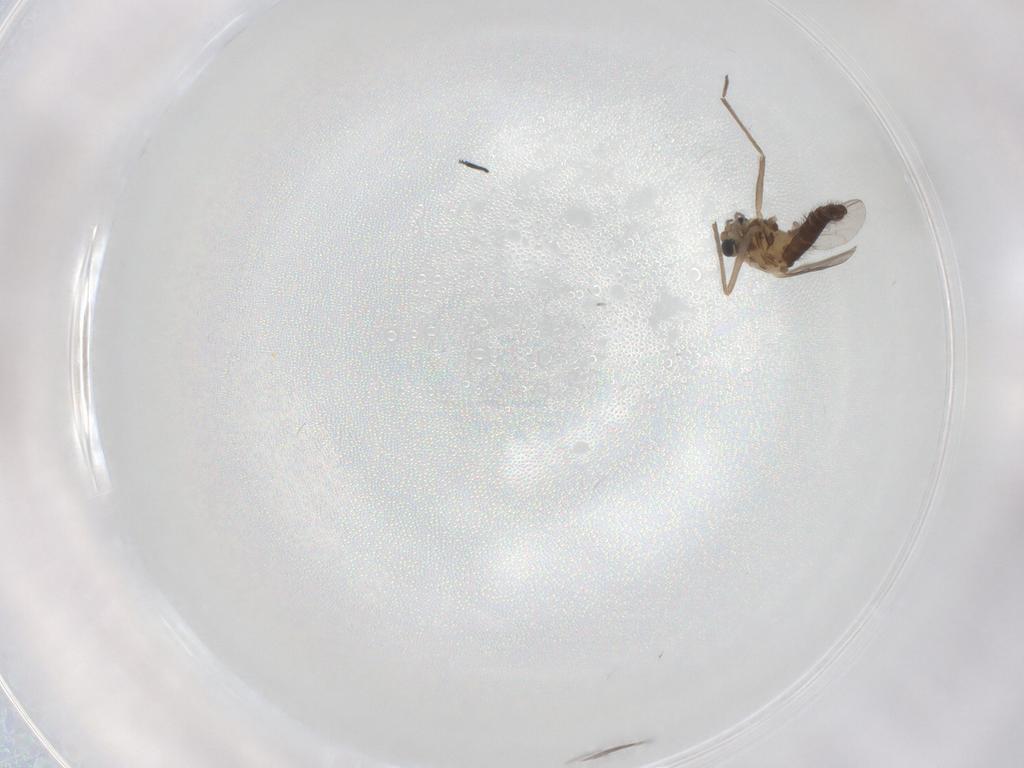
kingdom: Animalia
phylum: Arthropoda
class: Insecta
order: Diptera
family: Chironomidae
